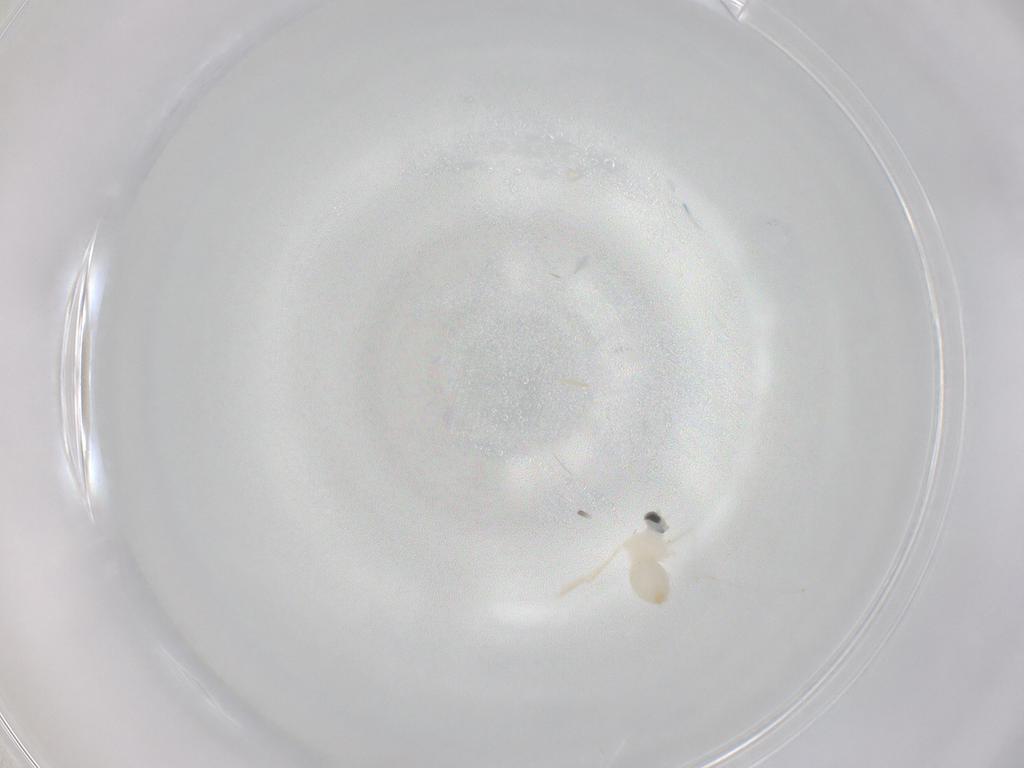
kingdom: Animalia
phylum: Arthropoda
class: Insecta
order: Diptera
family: Cecidomyiidae
